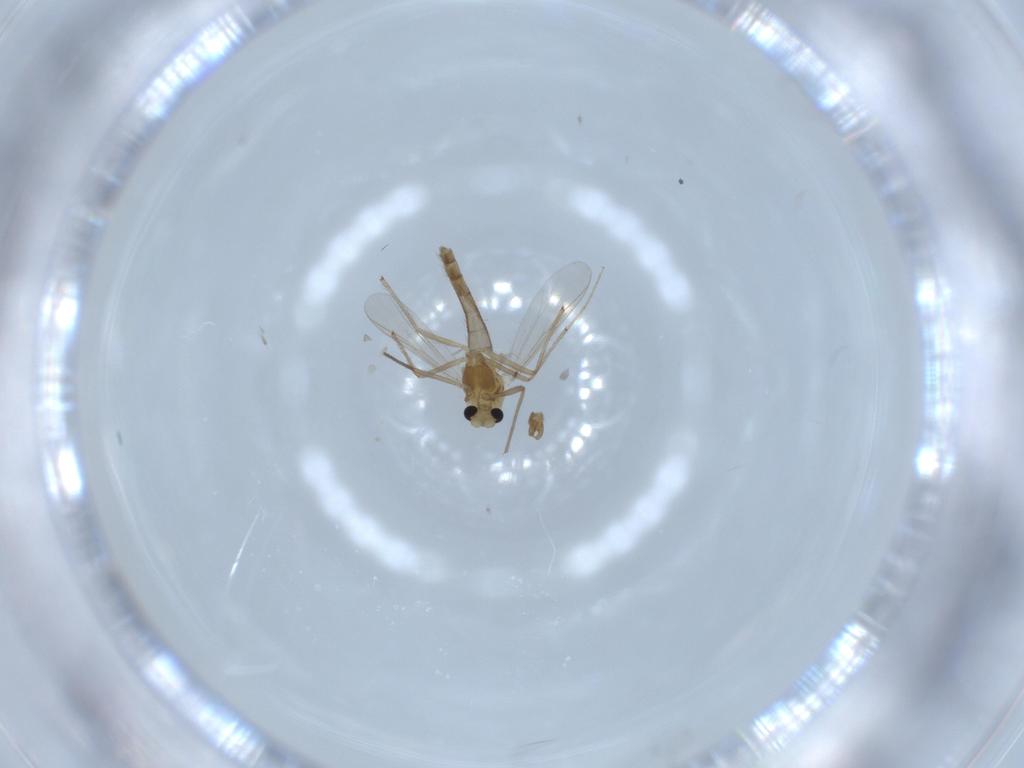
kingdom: Animalia
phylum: Arthropoda
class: Insecta
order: Diptera
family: Chironomidae
